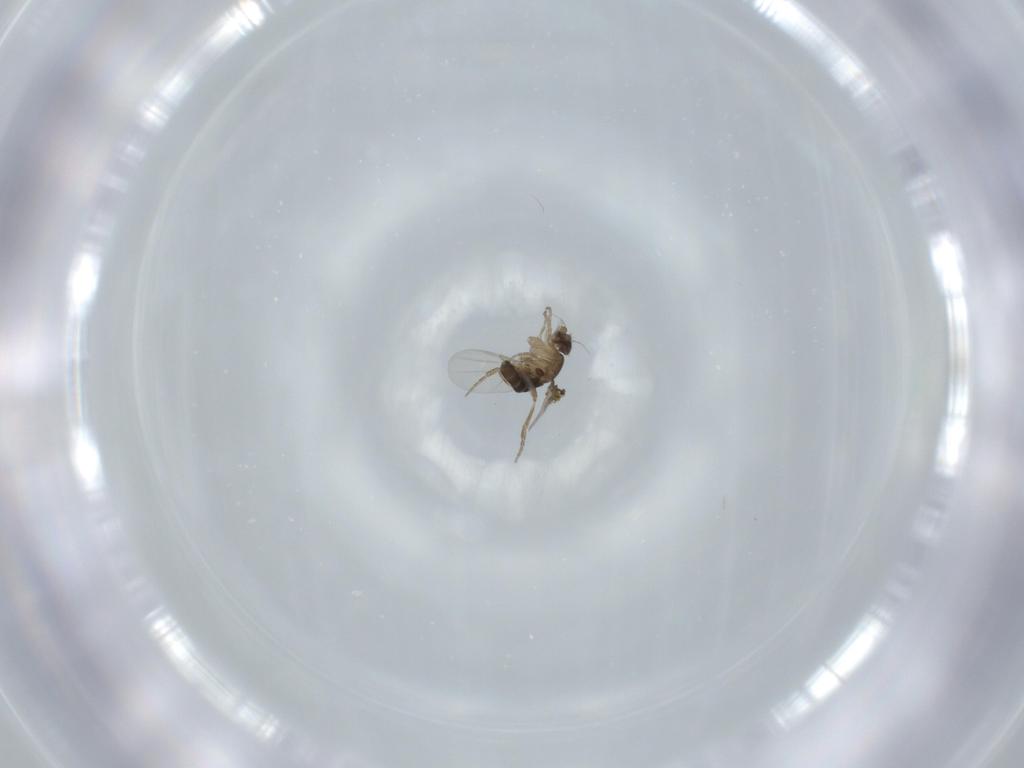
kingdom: Animalia
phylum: Arthropoda
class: Insecta
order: Diptera
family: Phoridae
